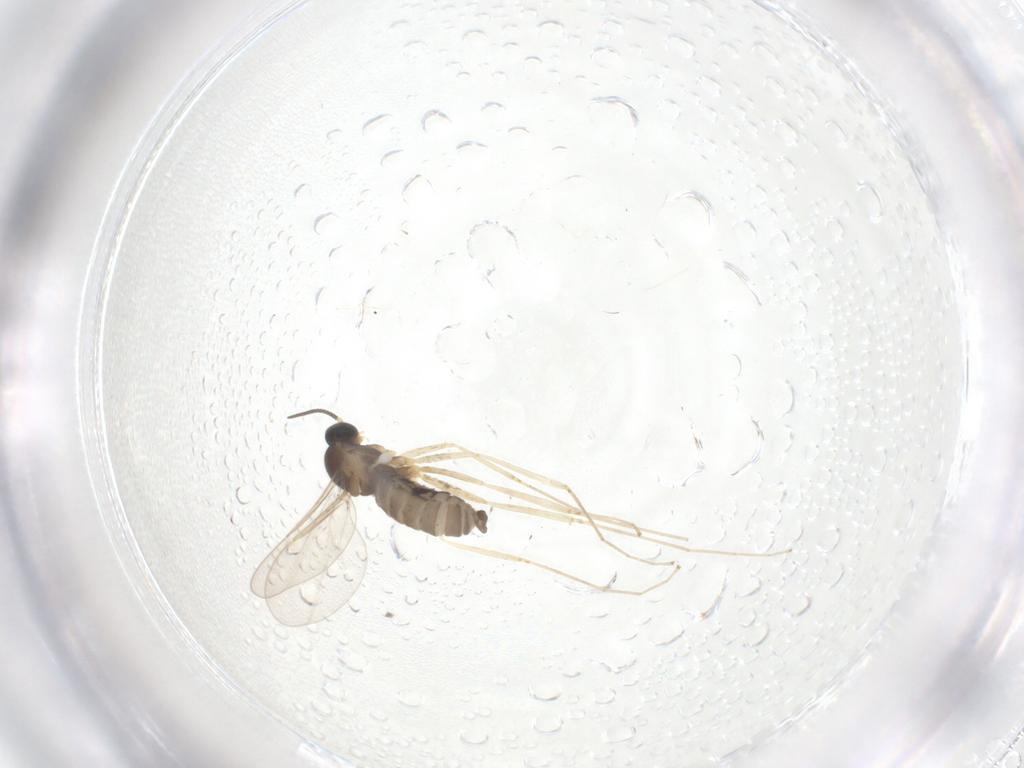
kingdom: Animalia
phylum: Arthropoda
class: Insecta
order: Diptera
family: Cecidomyiidae
